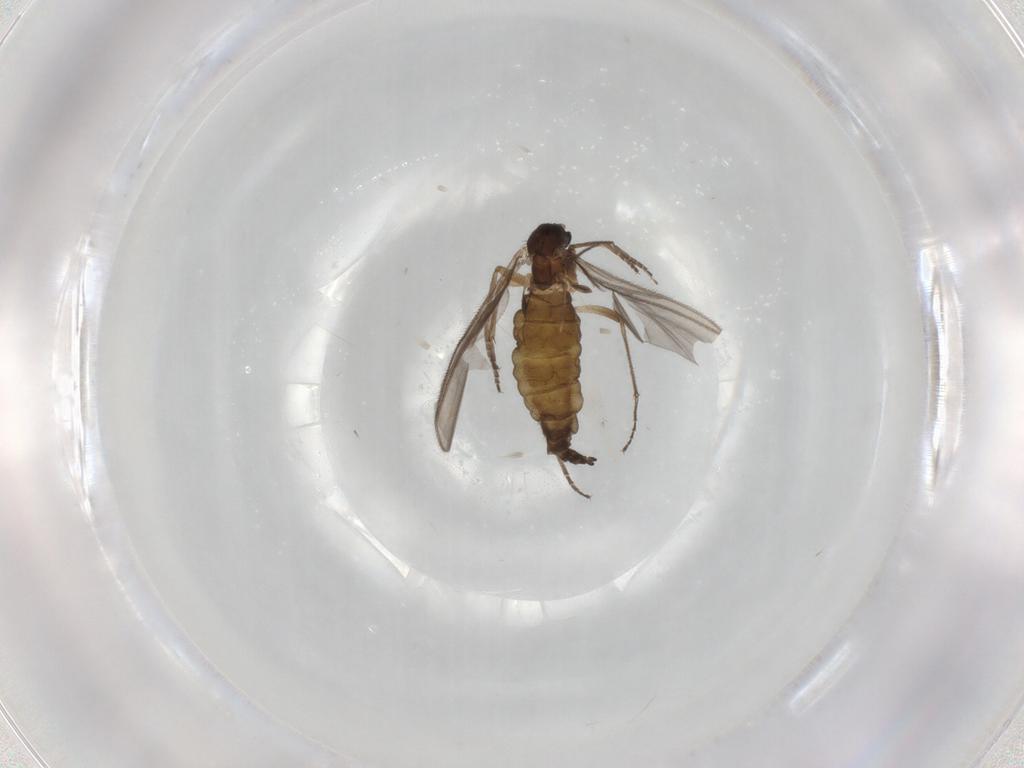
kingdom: Animalia
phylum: Arthropoda
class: Insecta
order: Diptera
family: Sciaridae
